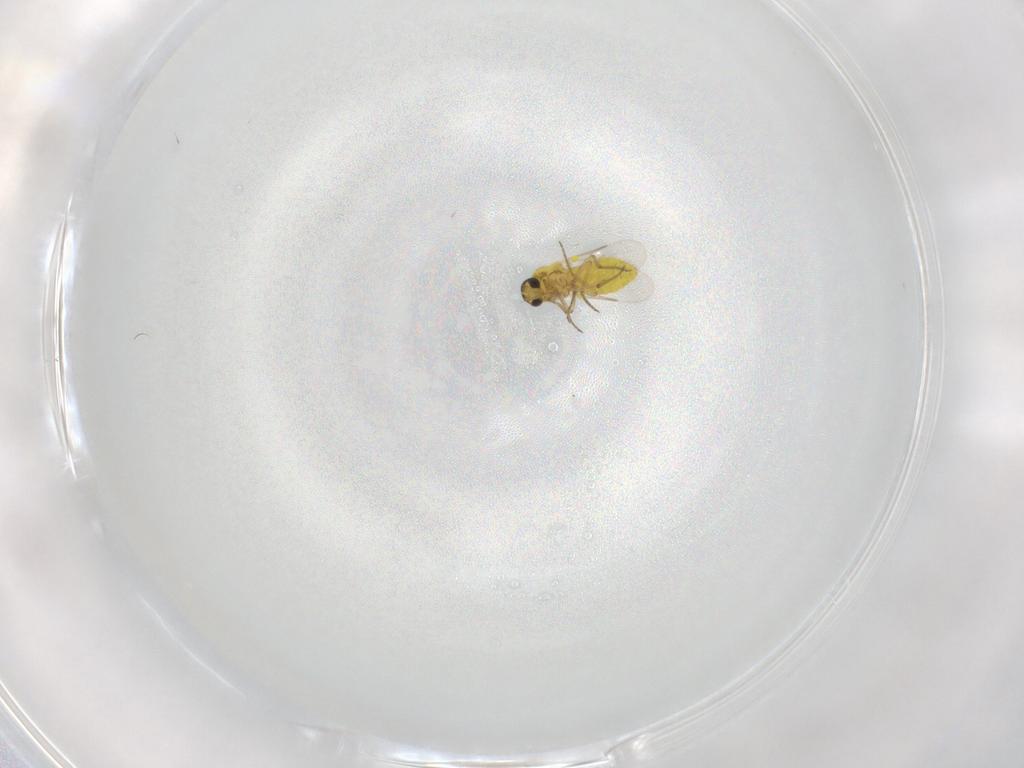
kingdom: Animalia
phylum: Arthropoda
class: Insecta
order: Diptera
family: Ceratopogonidae
